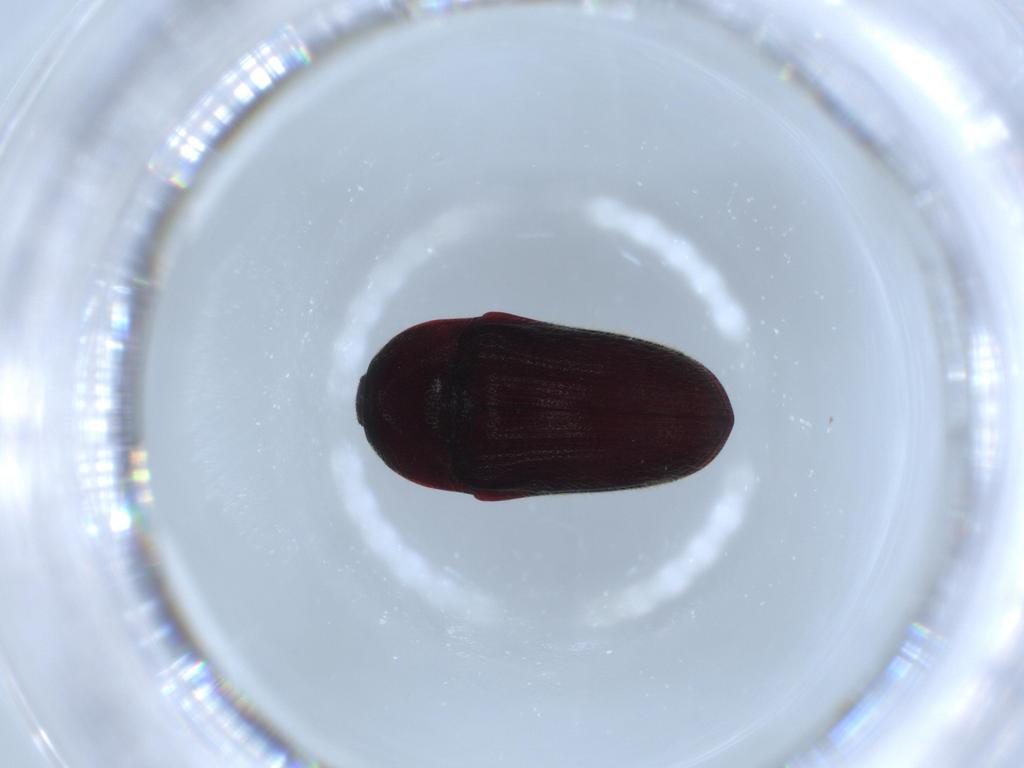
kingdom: Animalia
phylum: Arthropoda
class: Insecta
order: Coleoptera
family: Throscidae
